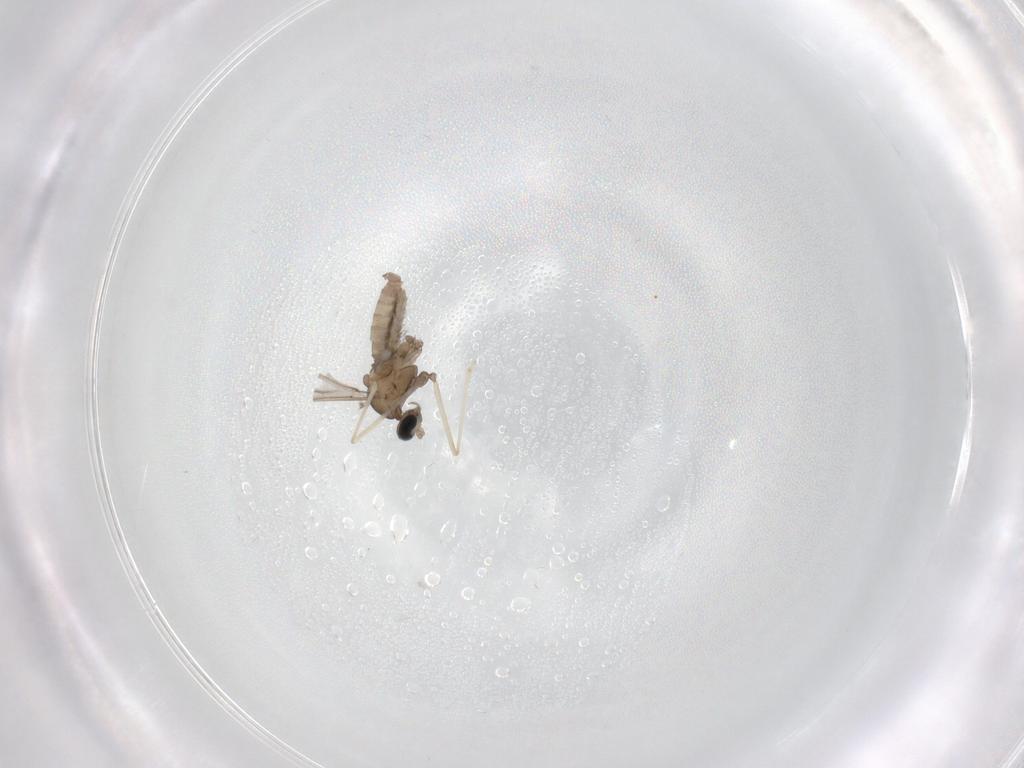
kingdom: Animalia
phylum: Arthropoda
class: Insecta
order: Diptera
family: Cecidomyiidae
